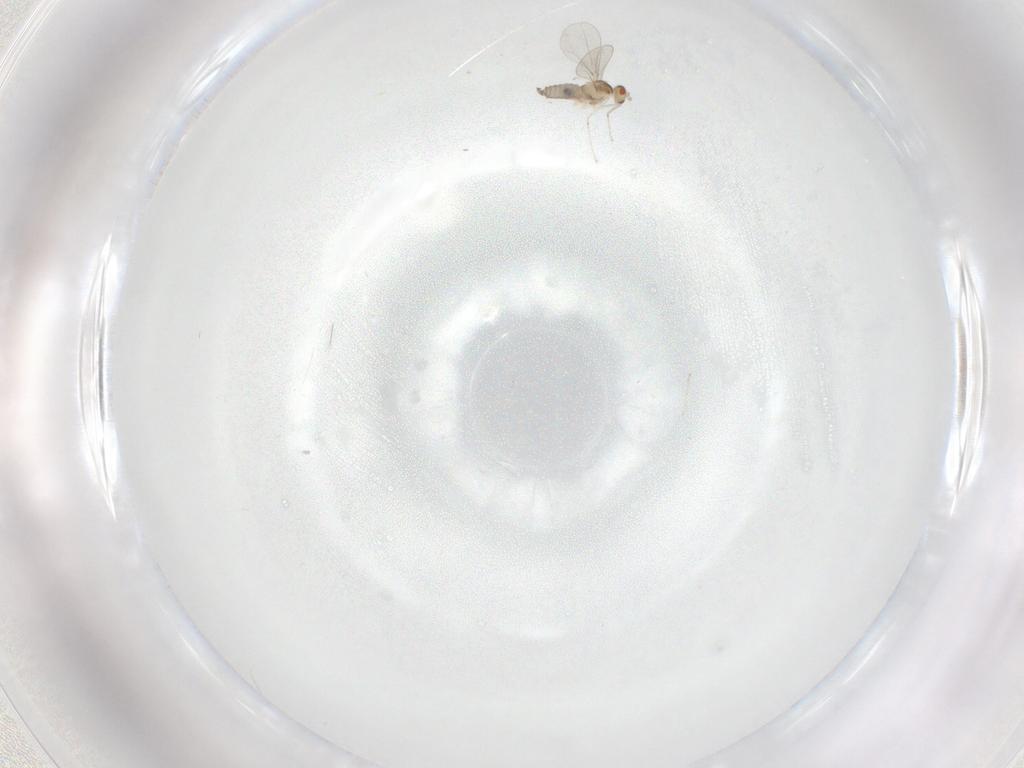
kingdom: Animalia
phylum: Arthropoda
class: Insecta
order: Diptera
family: Cecidomyiidae
